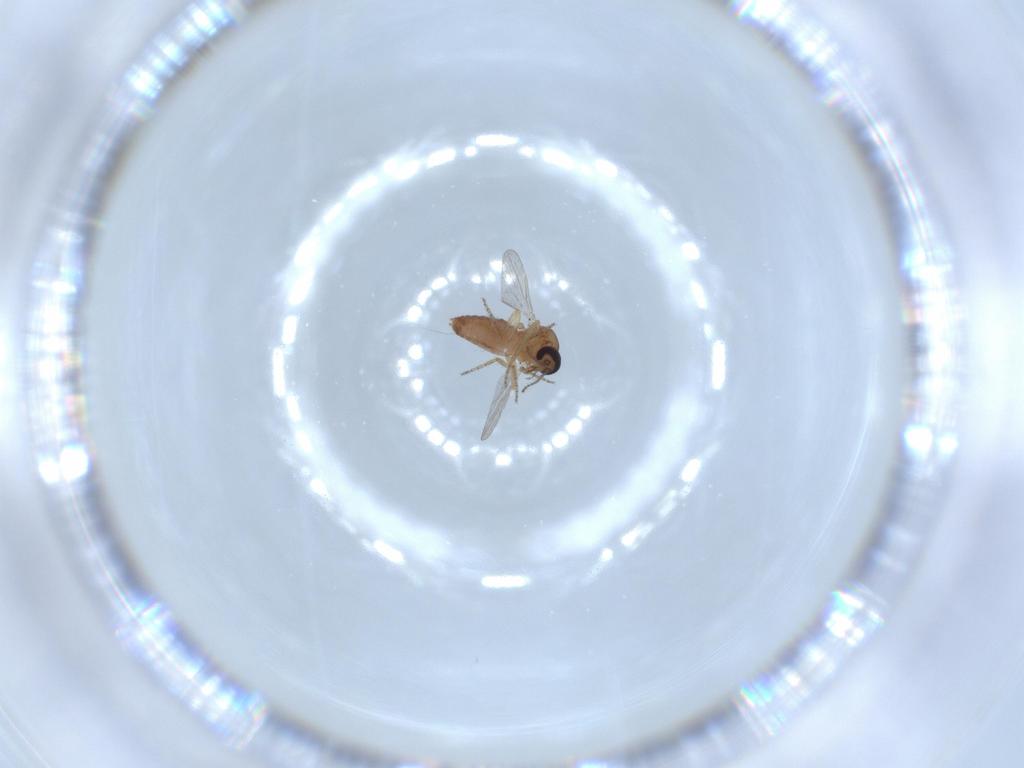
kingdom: Animalia
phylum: Arthropoda
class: Insecta
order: Diptera
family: Ceratopogonidae
